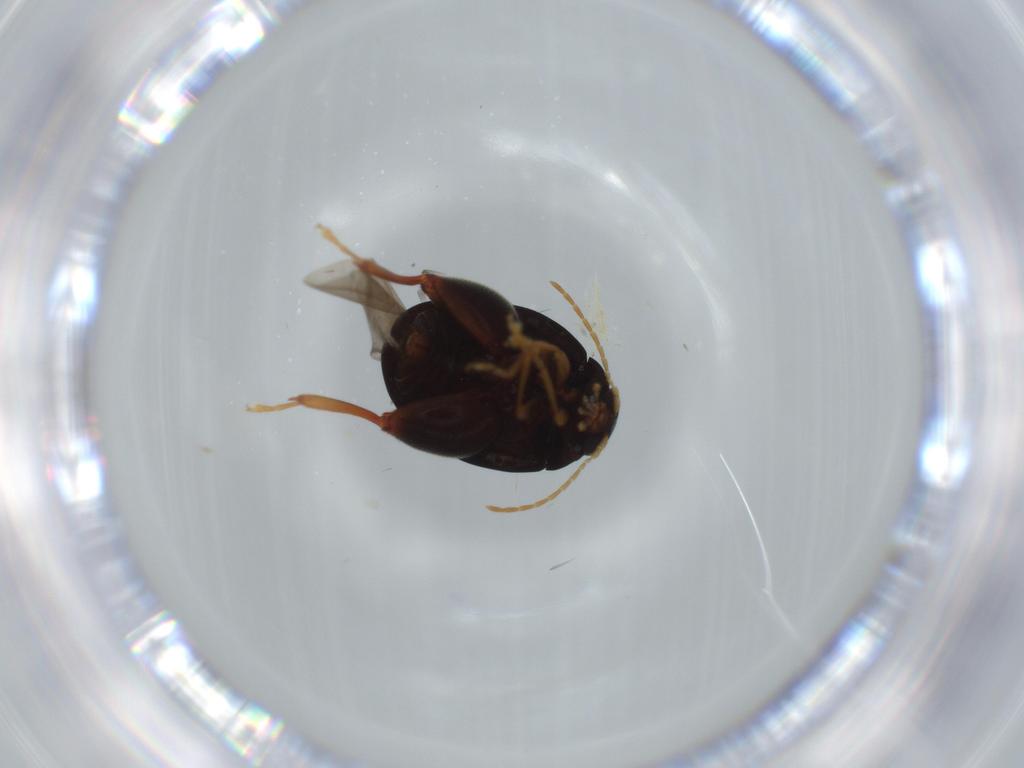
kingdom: Animalia
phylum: Arthropoda
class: Insecta
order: Coleoptera
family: Chrysomelidae
